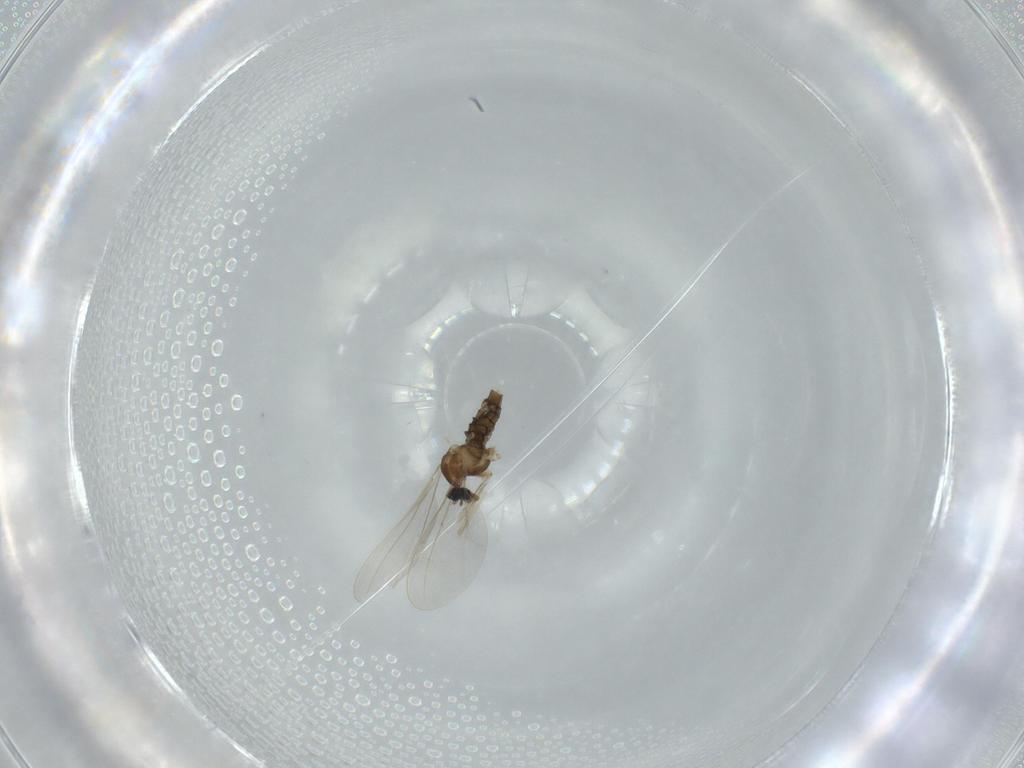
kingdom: Animalia
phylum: Arthropoda
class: Insecta
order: Diptera
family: Cecidomyiidae
